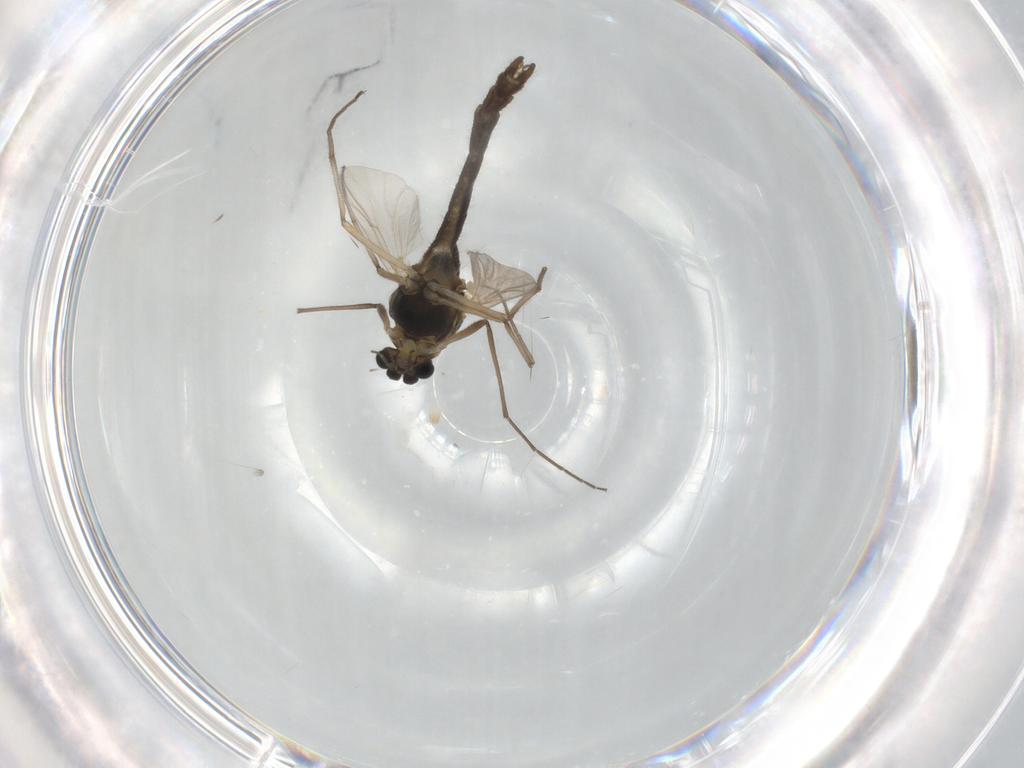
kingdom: Animalia
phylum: Arthropoda
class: Insecta
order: Diptera
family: Chironomidae
